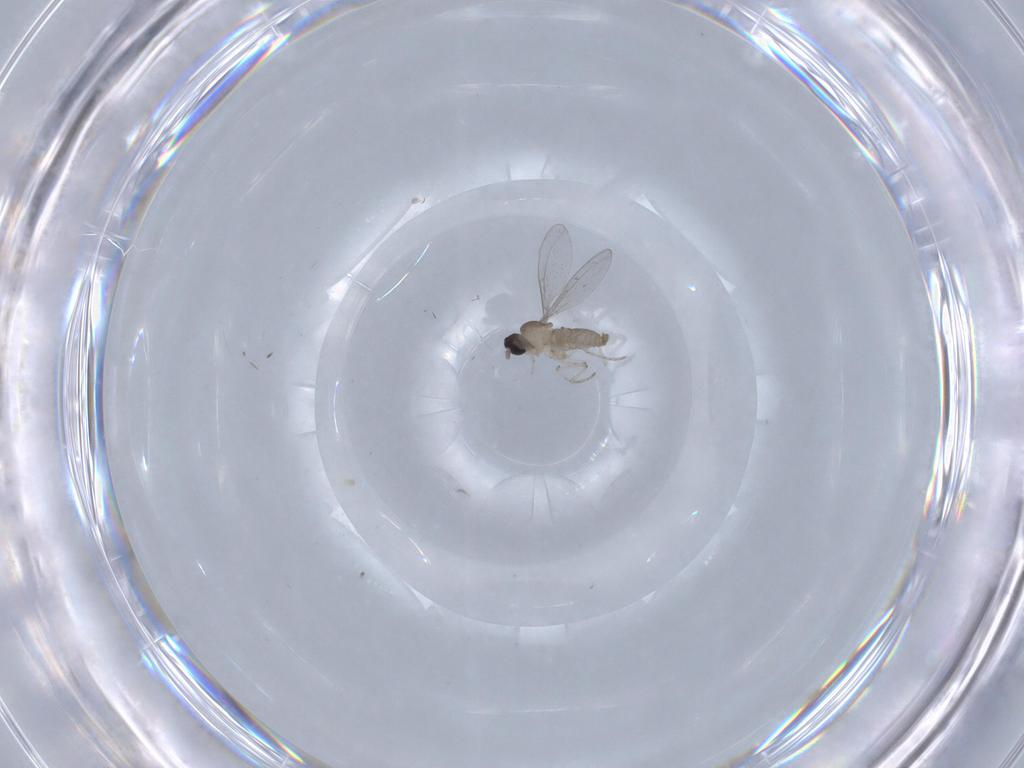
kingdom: Animalia
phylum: Arthropoda
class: Insecta
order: Diptera
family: Cecidomyiidae
